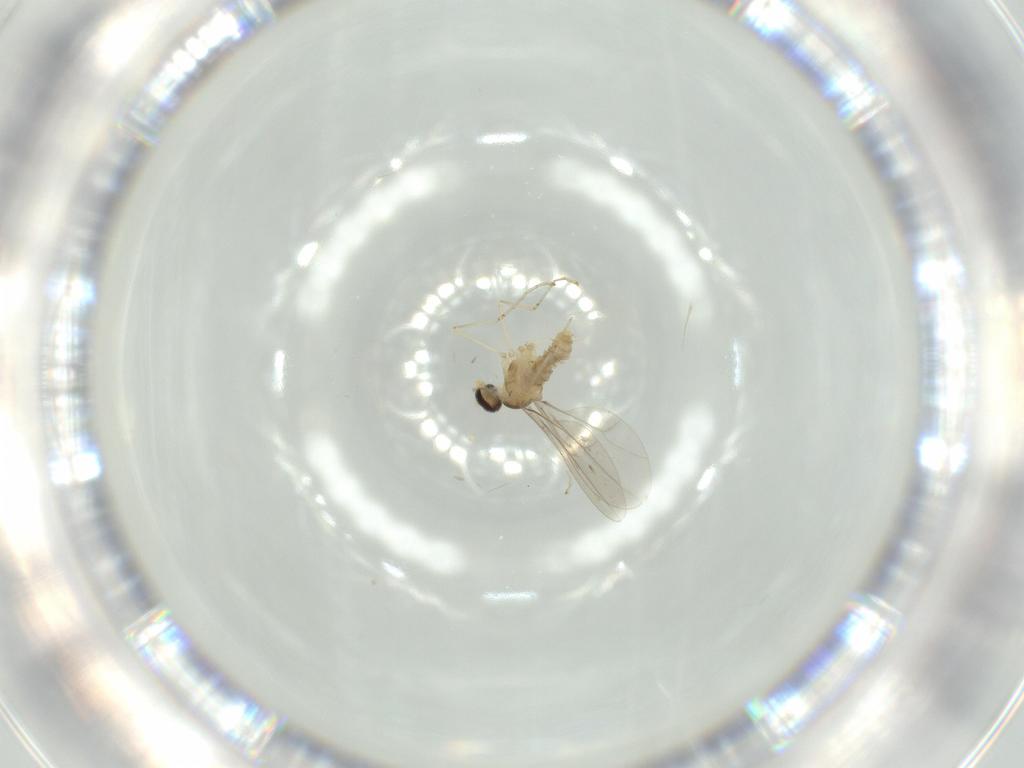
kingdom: Animalia
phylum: Arthropoda
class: Insecta
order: Diptera
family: Cecidomyiidae
